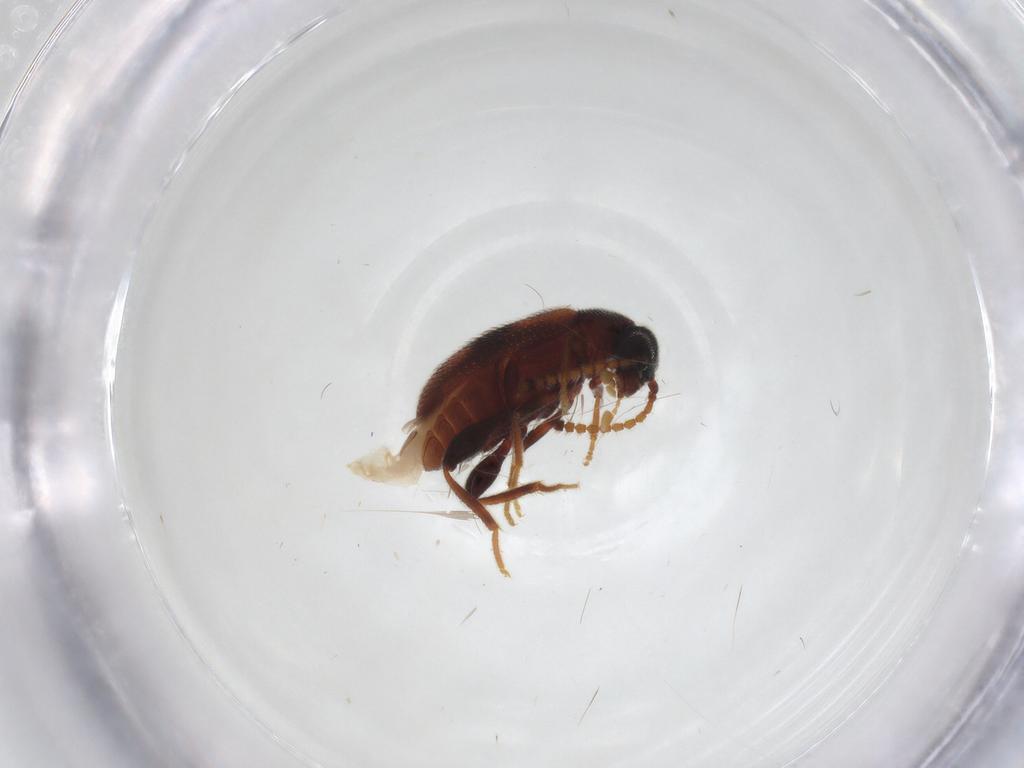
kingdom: Animalia
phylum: Arthropoda
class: Insecta
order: Coleoptera
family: Aderidae
